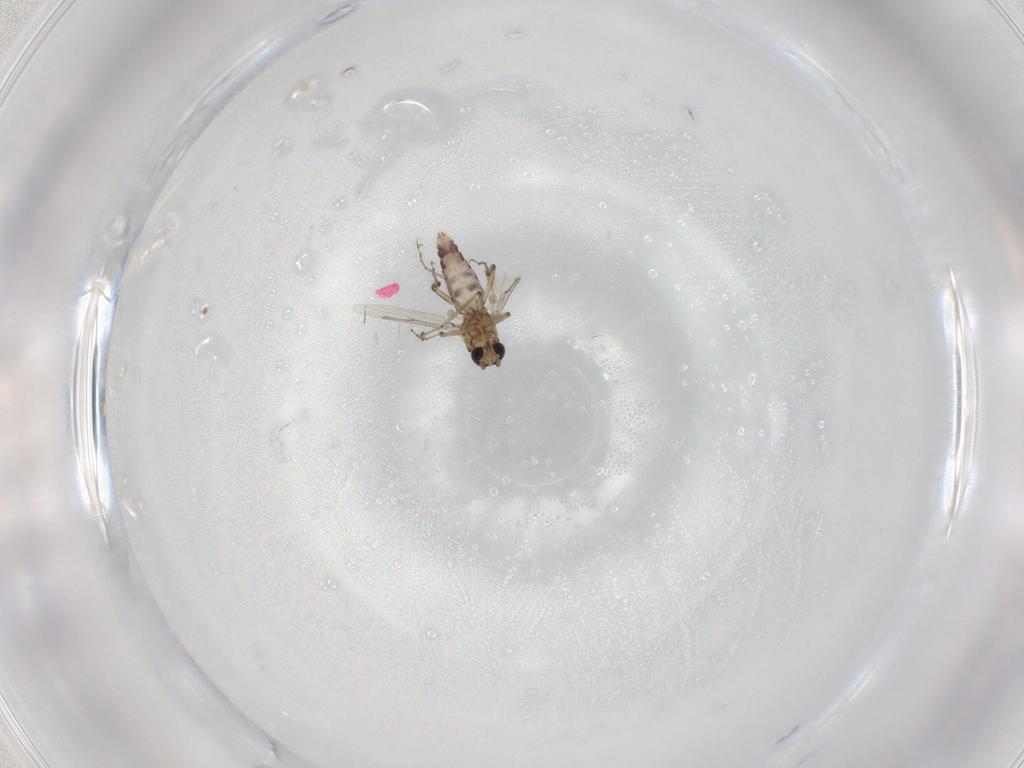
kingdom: Animalia
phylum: Arthropoda
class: Insecta
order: Diptera
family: Ceratopogonidae
